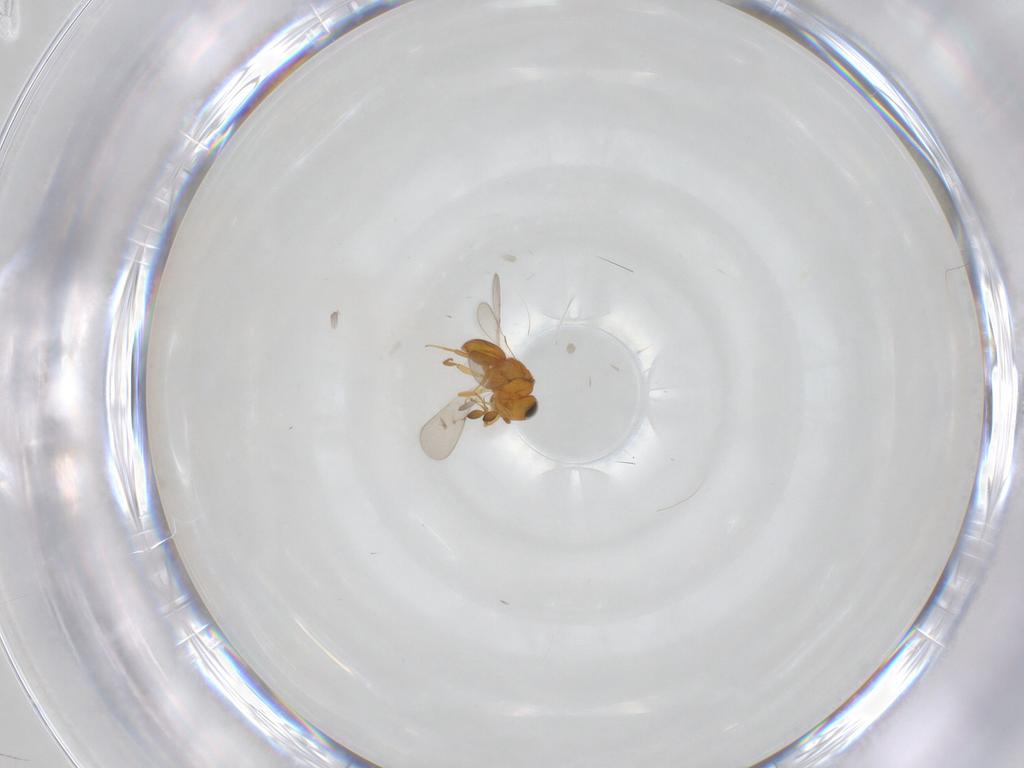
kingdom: Animalia
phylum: Arthropoda
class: Insecta
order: Hymenoptera
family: Scelionidae
